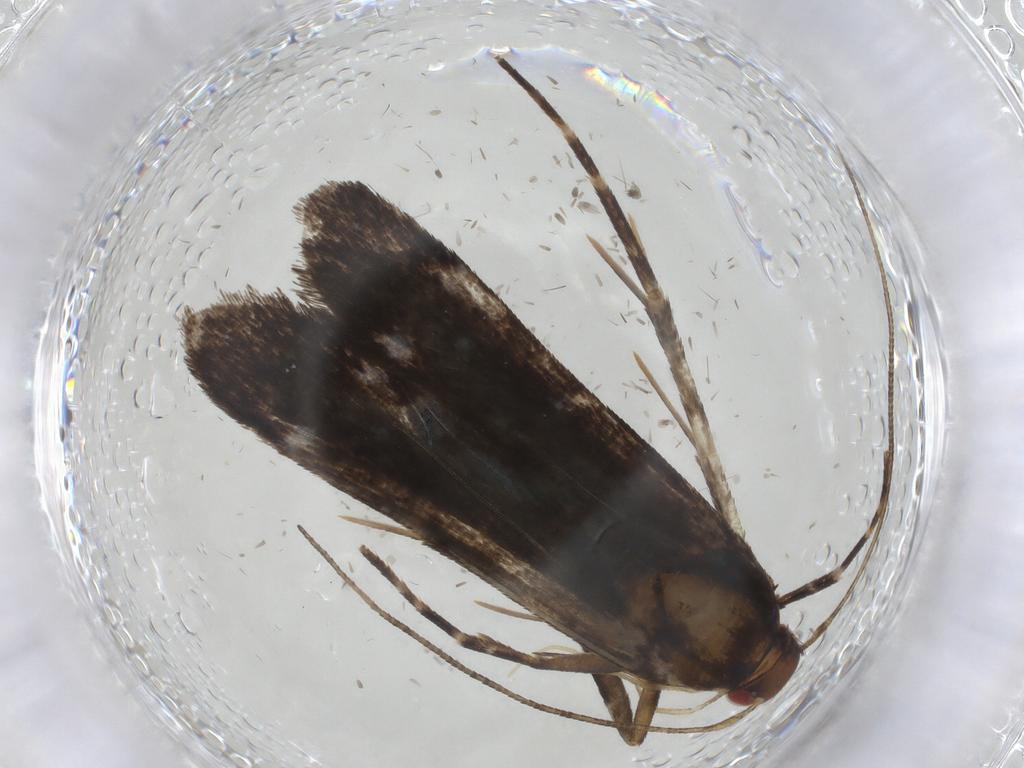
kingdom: Animalia
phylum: Arthropoda
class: Insecta
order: Lepidoptera
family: Gelechiidae
